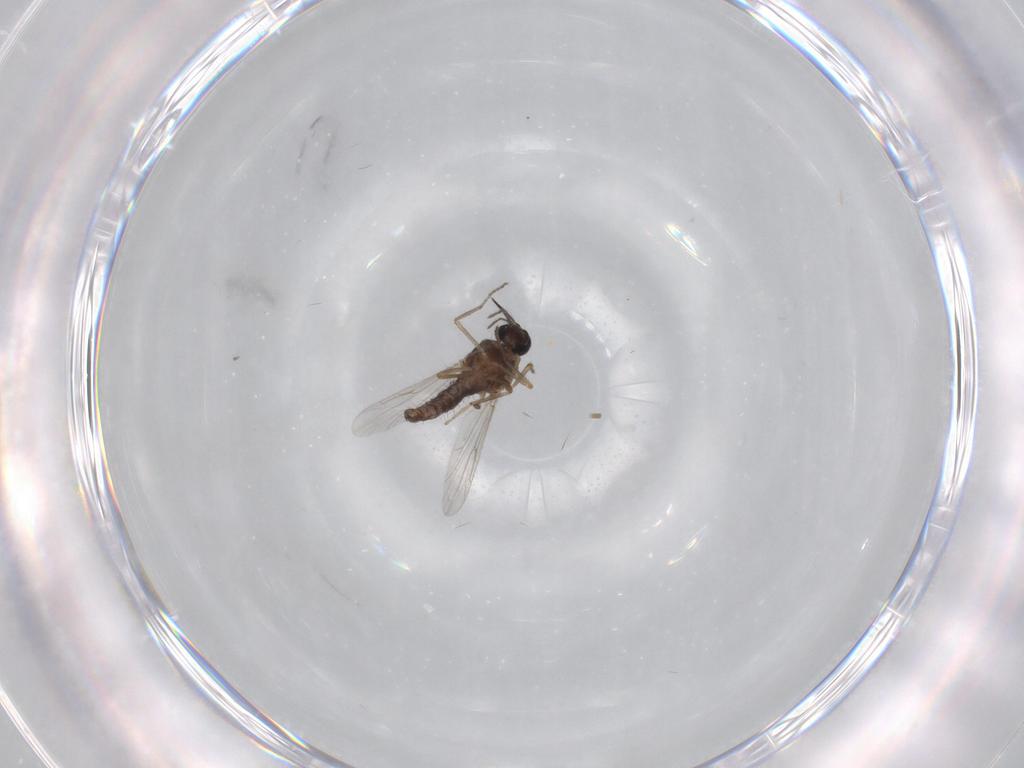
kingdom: Animalia
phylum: Arthropoda
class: Insecta
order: Diptera
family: Ceratopogonidae
